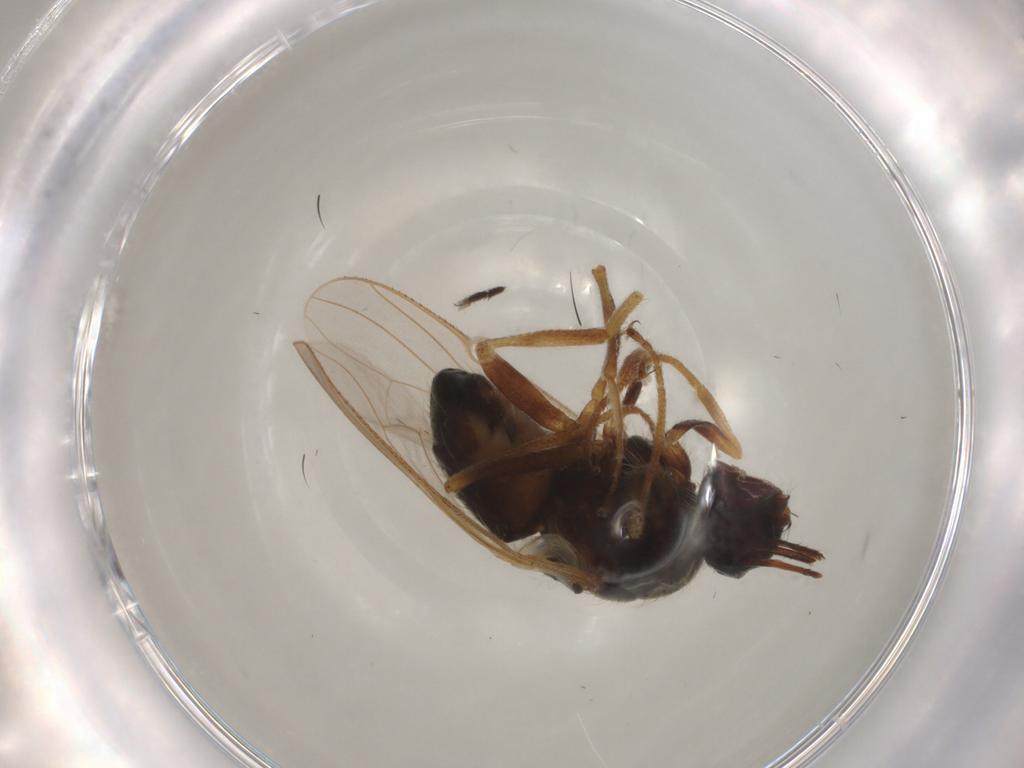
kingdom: Animalia
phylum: Arthropoda
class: Insecta
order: Diptera
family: Muscidae
